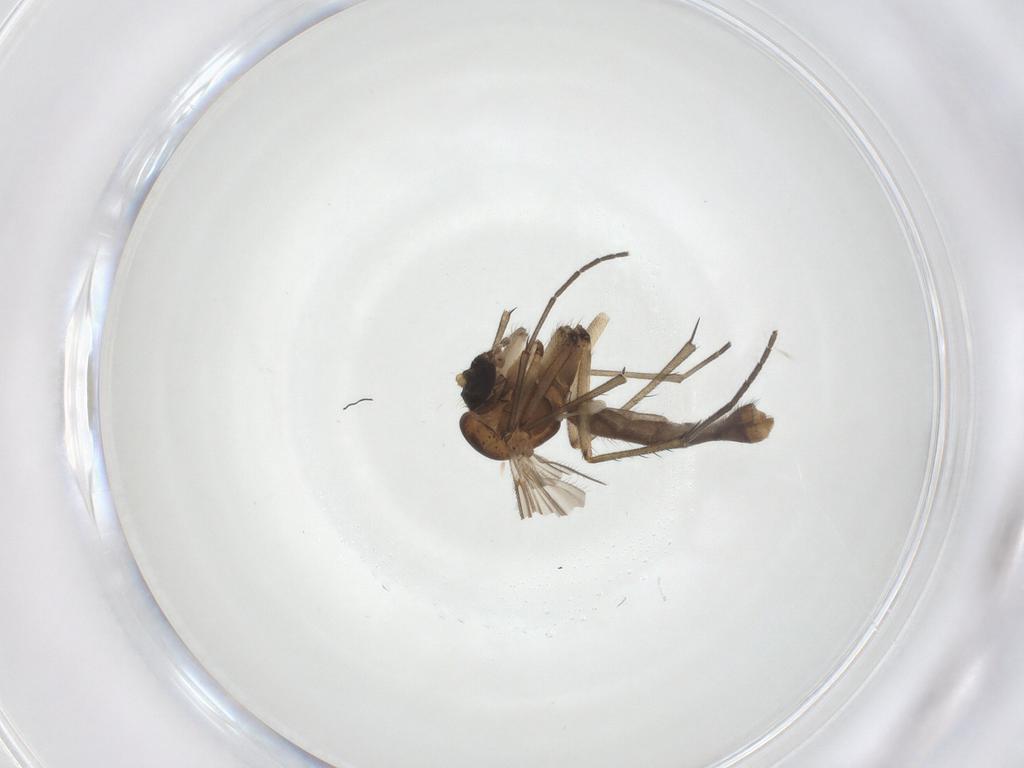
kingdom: Animalia
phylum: Arthropoda
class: Insecta
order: Diptera
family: Sciaridae
